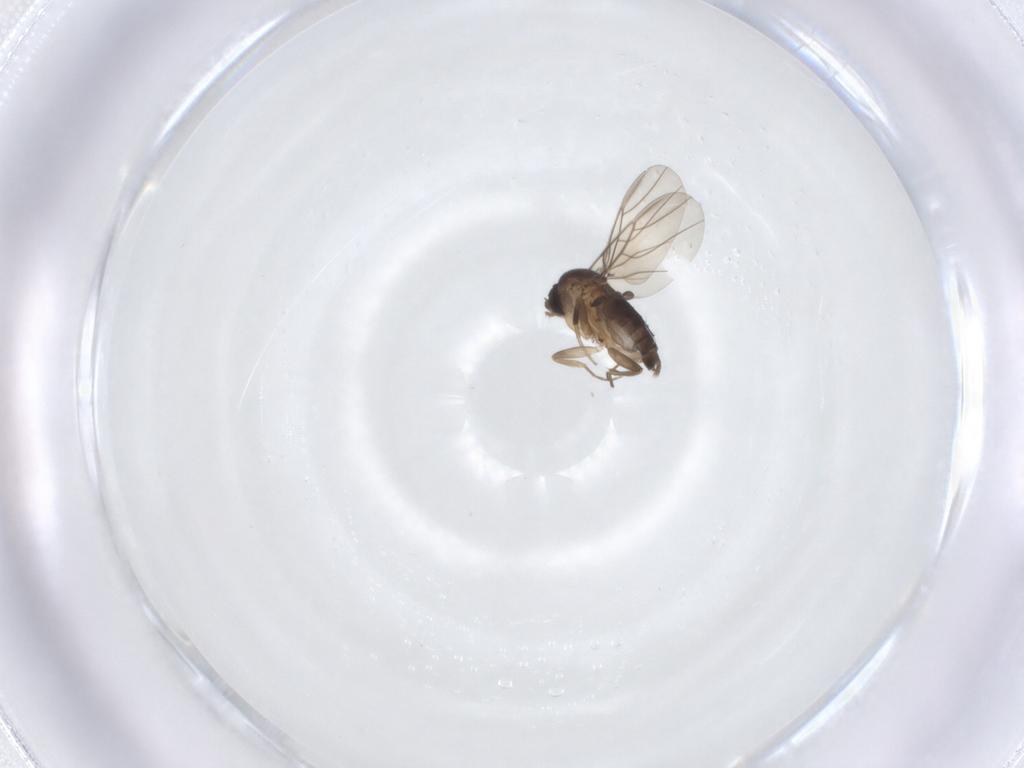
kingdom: Animalia
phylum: Arthropoda
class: Insecta
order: Diptera
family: Phoridae
